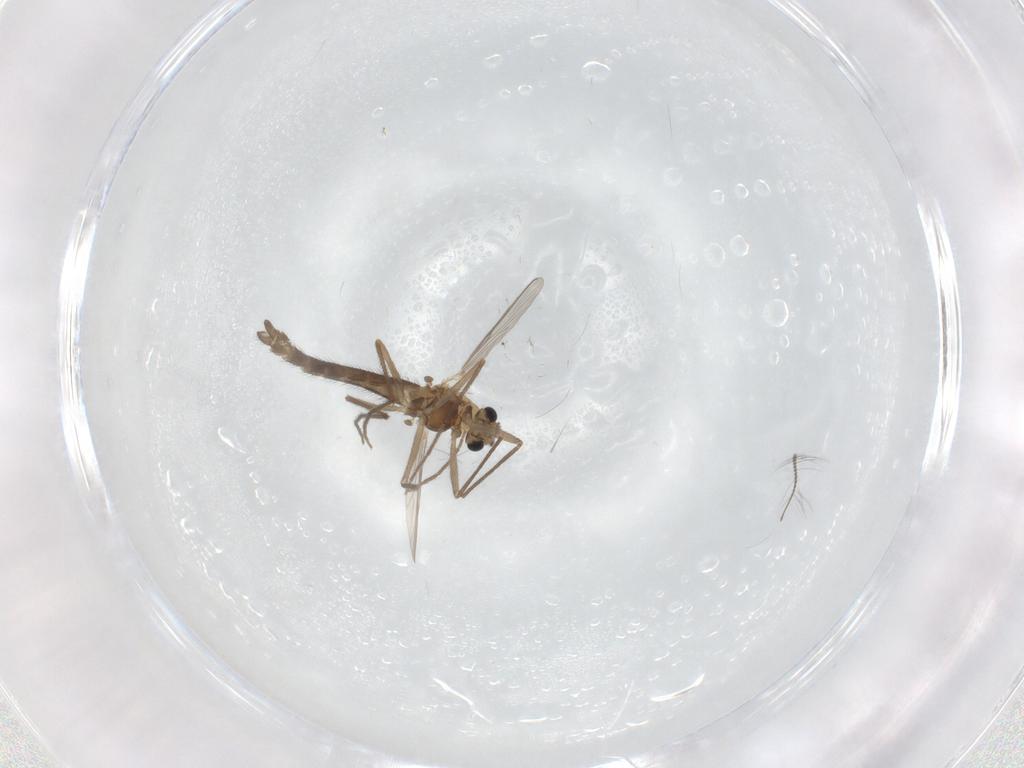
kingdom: Animalia
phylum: Arthropoda
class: Insecta
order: Diptera
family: Chironomidae
